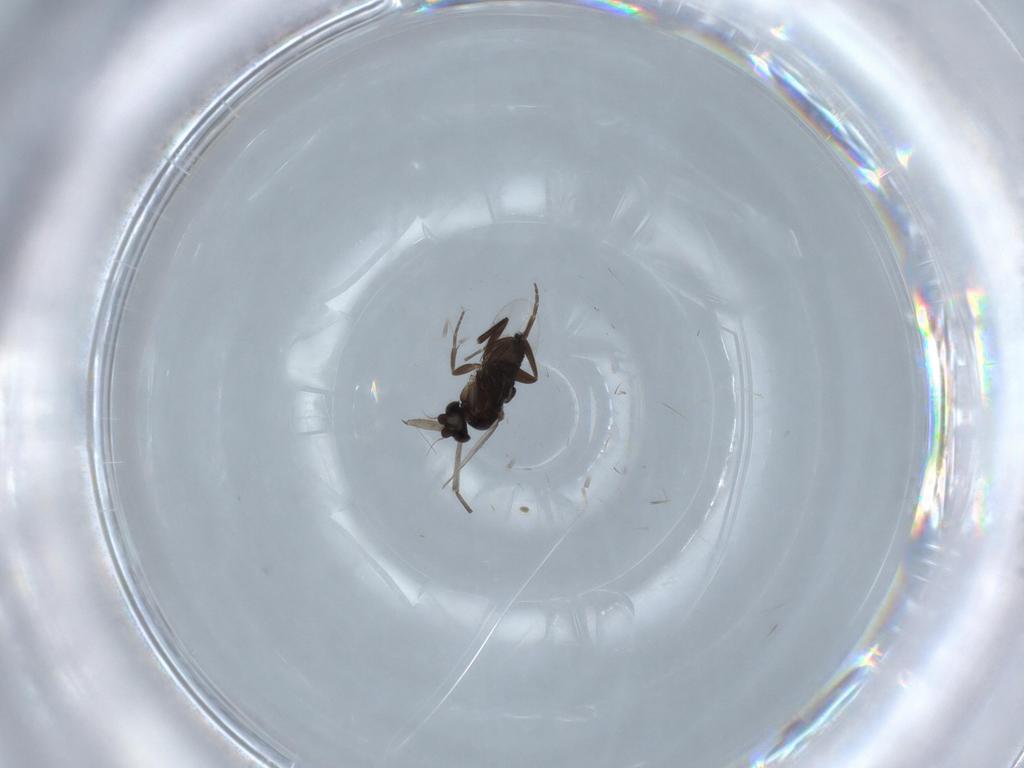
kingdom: Animalia
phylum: Arthropoda
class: Insecta
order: Diptera
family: Phoridae
